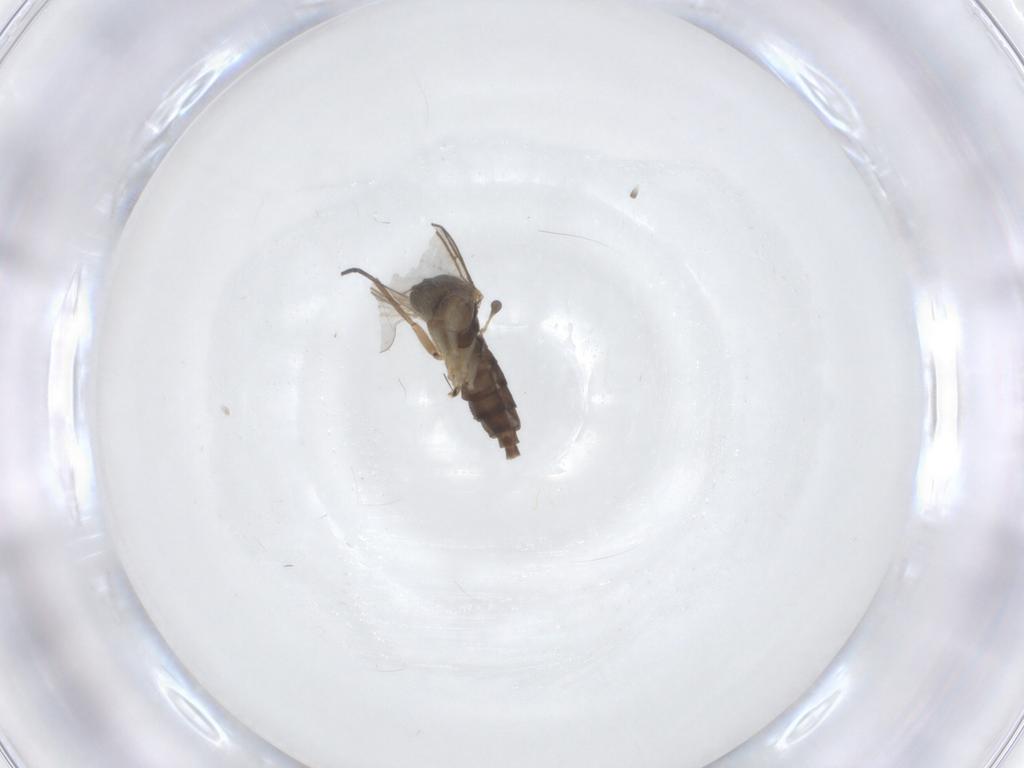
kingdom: Animalia
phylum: Arthropoda
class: Insecta
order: Diptera
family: Sciaridae
